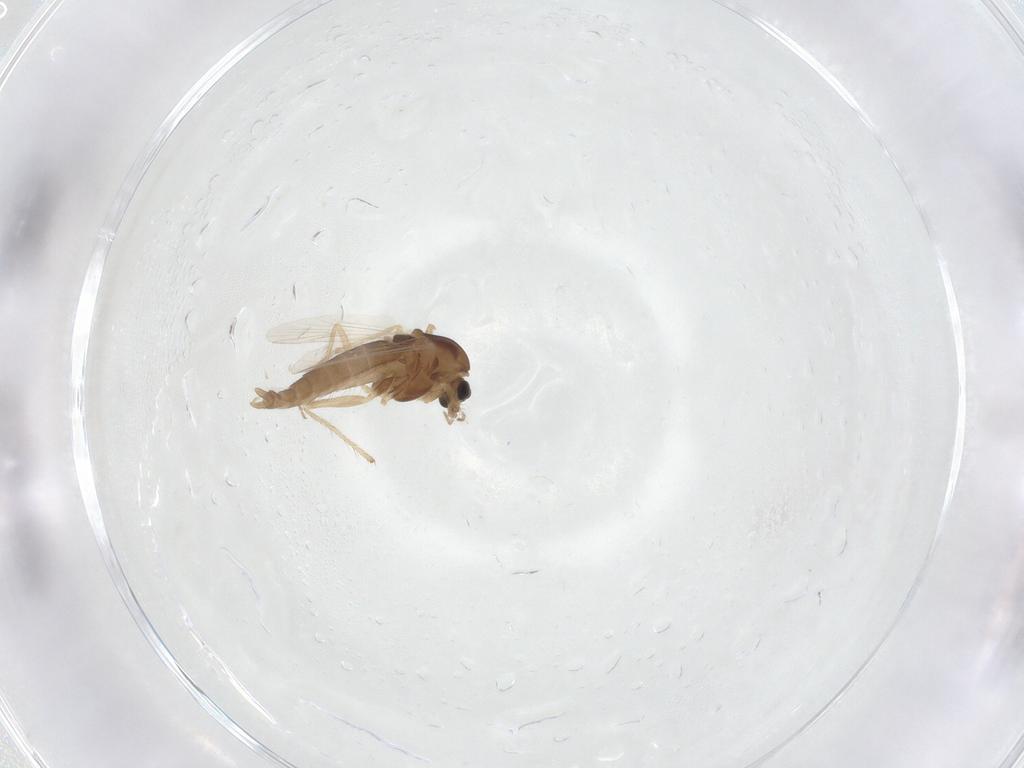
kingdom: Animalia
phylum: Arthropoda
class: Insecta
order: Diptera
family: Chironomidae
